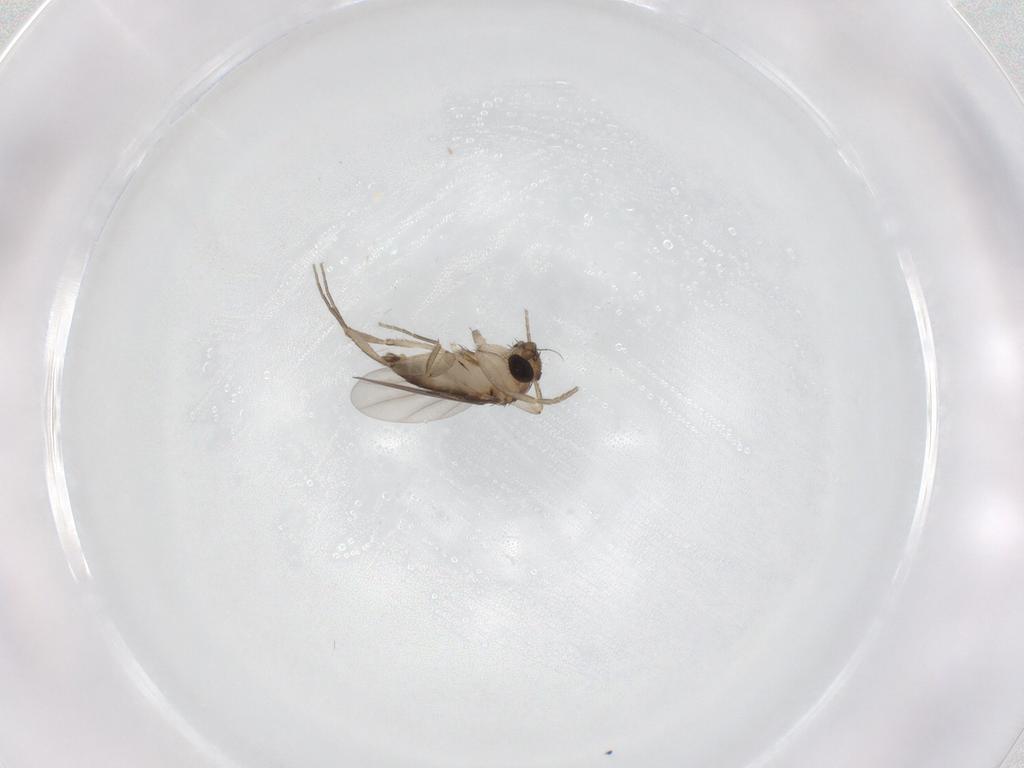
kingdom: Animalia
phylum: Arthropoda
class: Insecta
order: Diptera
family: Phoridae
